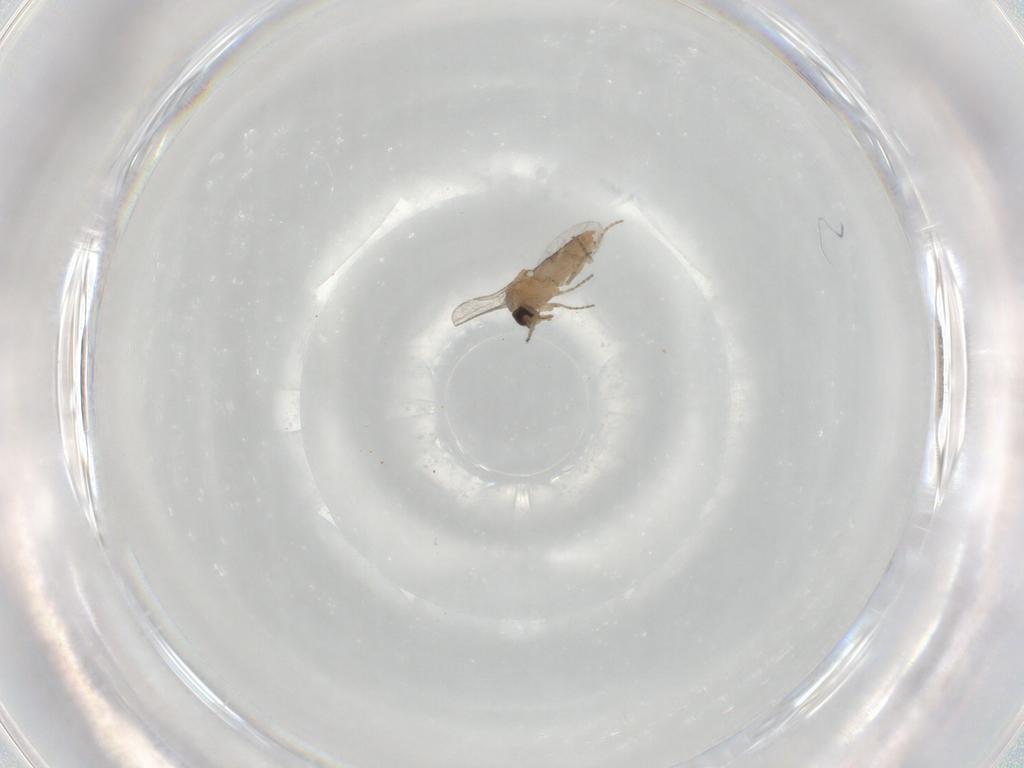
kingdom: Animalia
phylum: Arthropoda
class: Insecta
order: Diptera
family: Ceratopogonidae
